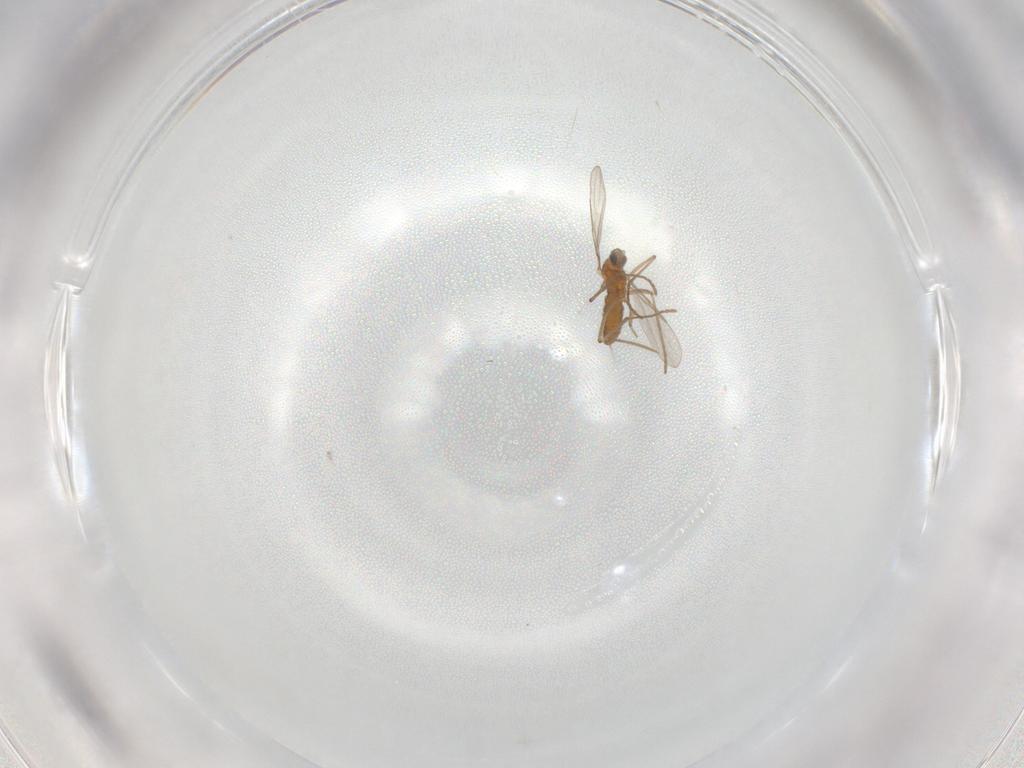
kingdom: Animalia
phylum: Arthropoda
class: Insecta
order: Diptera
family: Cecidomyiidae
